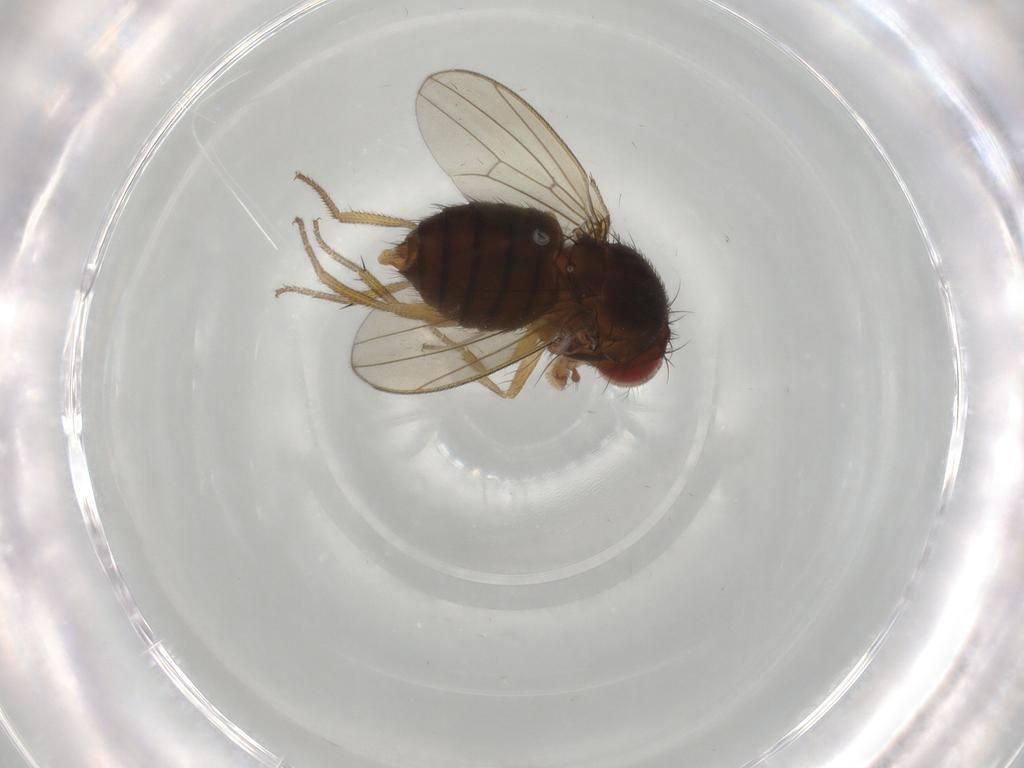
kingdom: Animalia
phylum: Arthropoda
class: Insecta
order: Diptera
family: Drosophilidae
